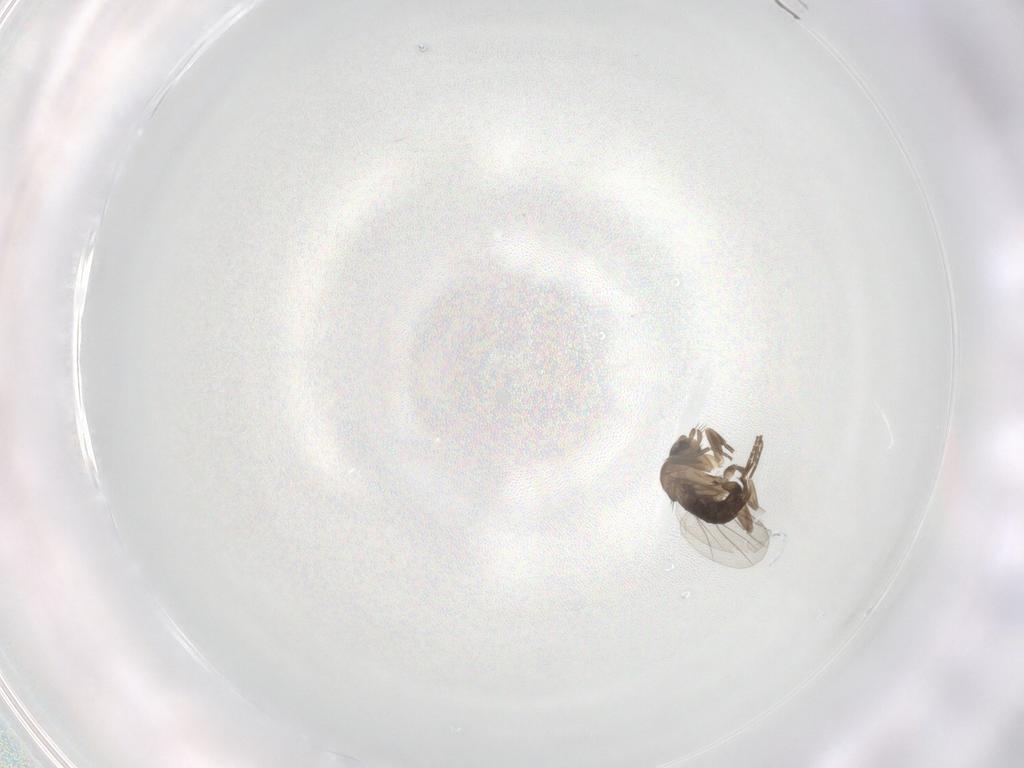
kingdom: Animalia
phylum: Arthropoda
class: Insecta
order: Diptera
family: Phoridae
